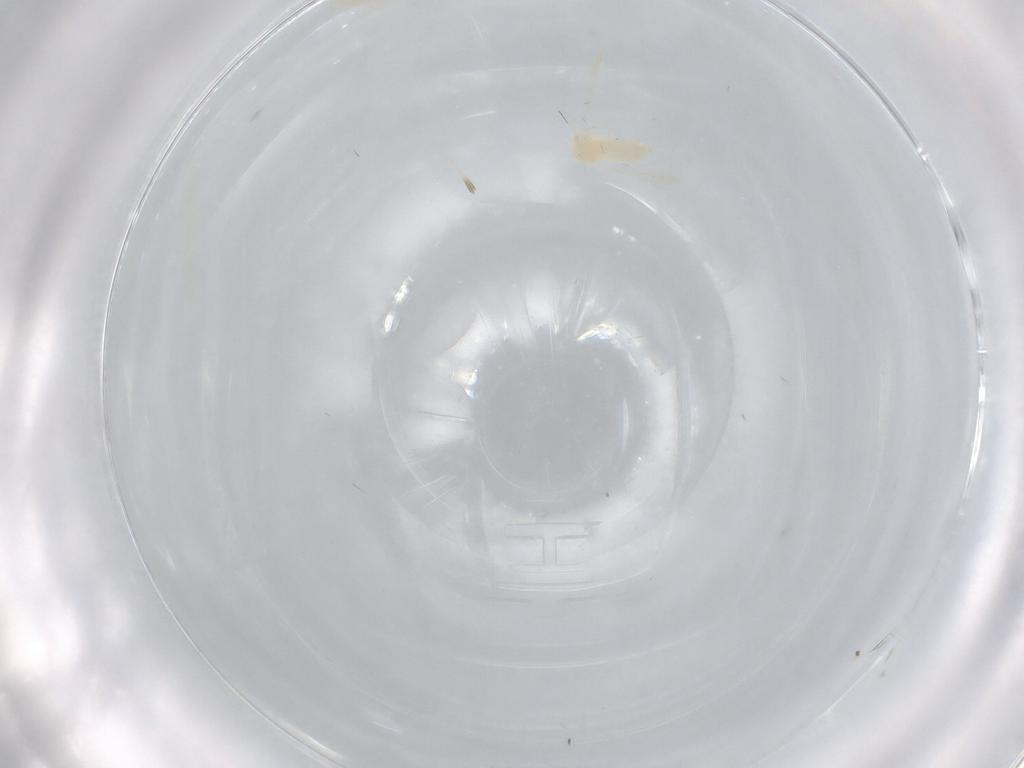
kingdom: Animalia
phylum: Arthropoda
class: Insecta
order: Hemiptera
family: Aleyrodidae
